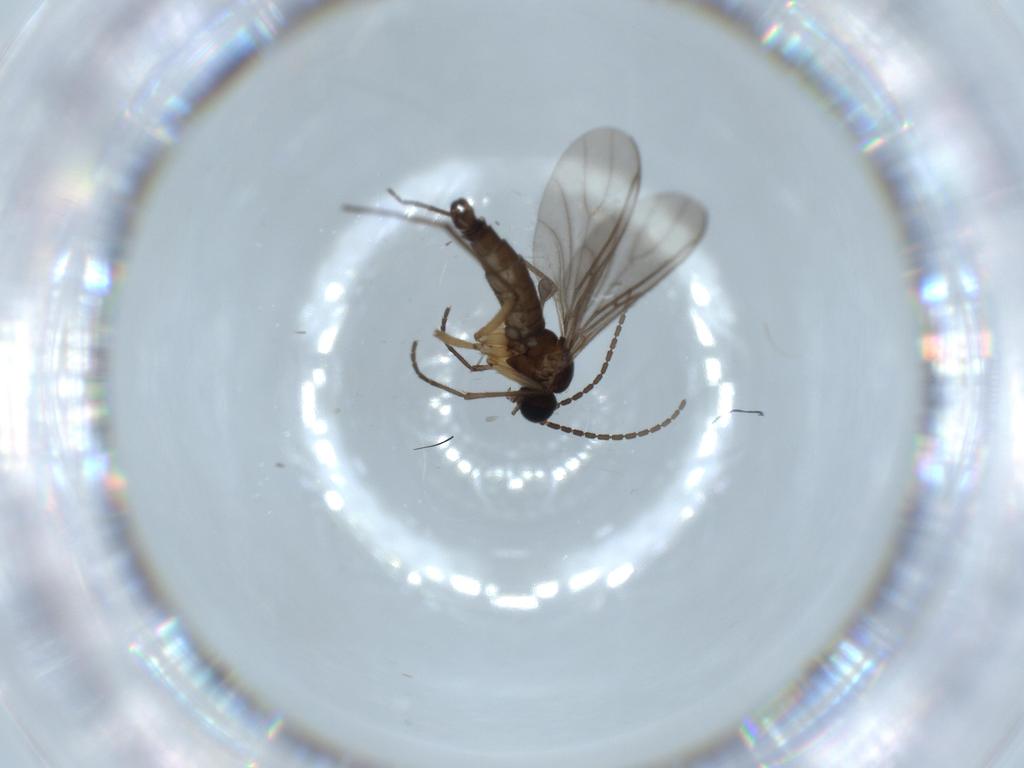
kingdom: Animalia
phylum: Arthropoda
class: Insecta
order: Diptera
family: Sciaridae
